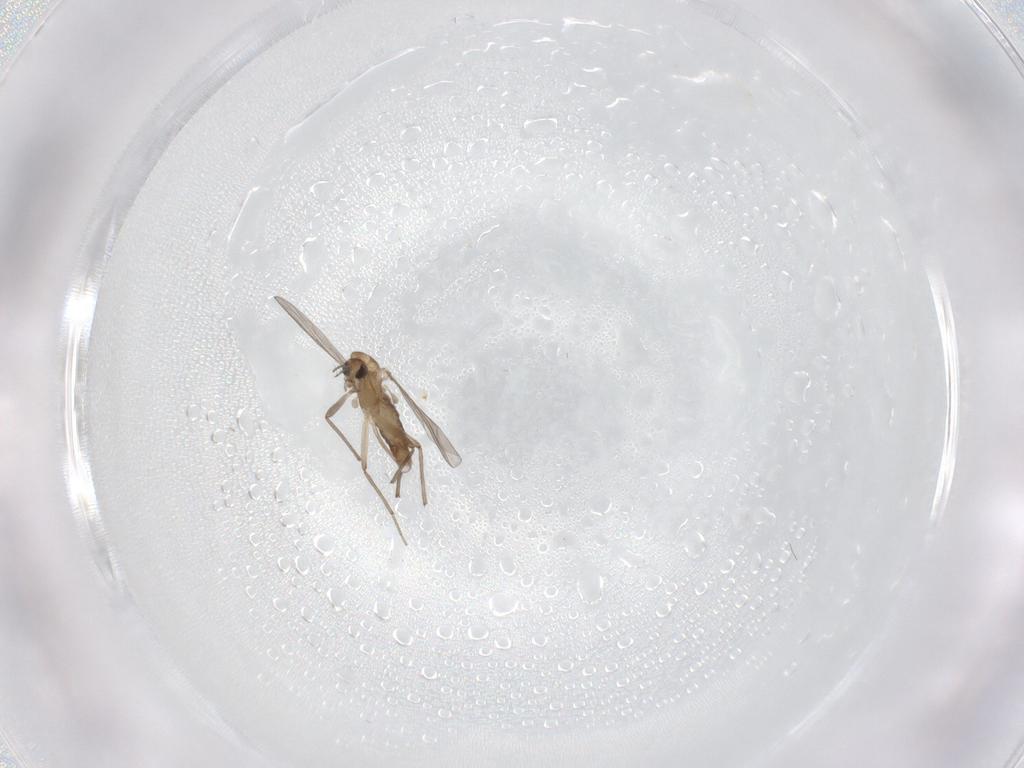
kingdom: Animalia
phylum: Arthropoda
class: Insecta
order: Diptera
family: Chironomidae
